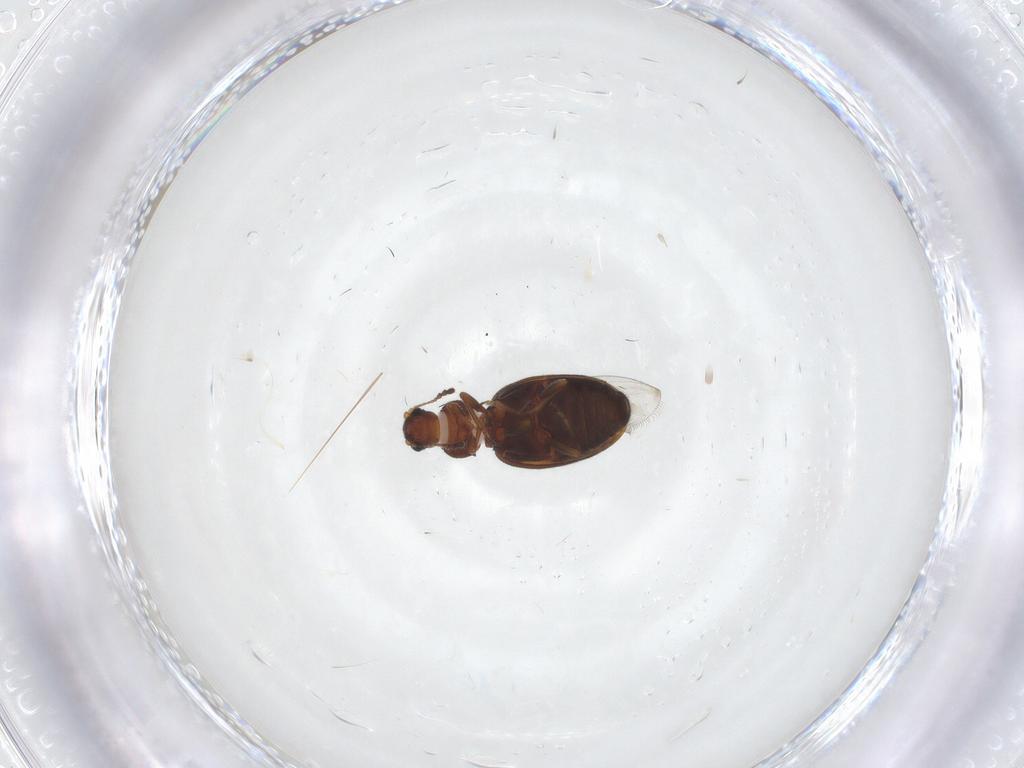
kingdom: Animalia
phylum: Arthropoda
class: Insecta
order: Coleoptera
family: Latridiidae
